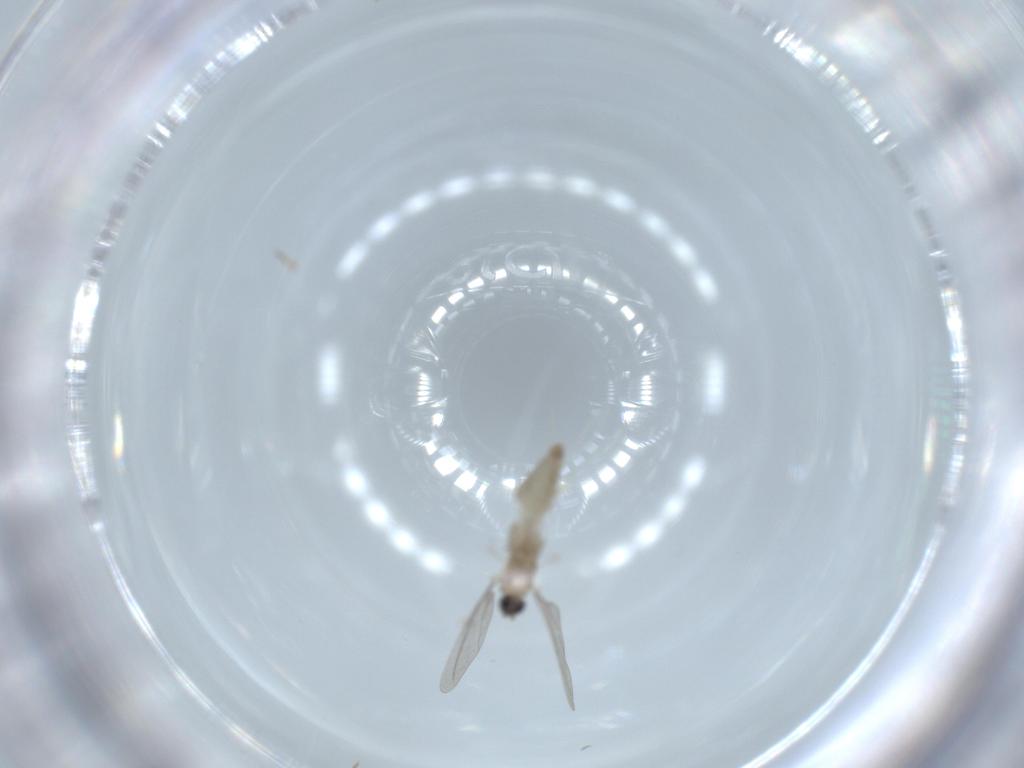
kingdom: Animalia
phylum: Arthropoda
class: Insecta
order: Diptera
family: Cecidomyiidae
